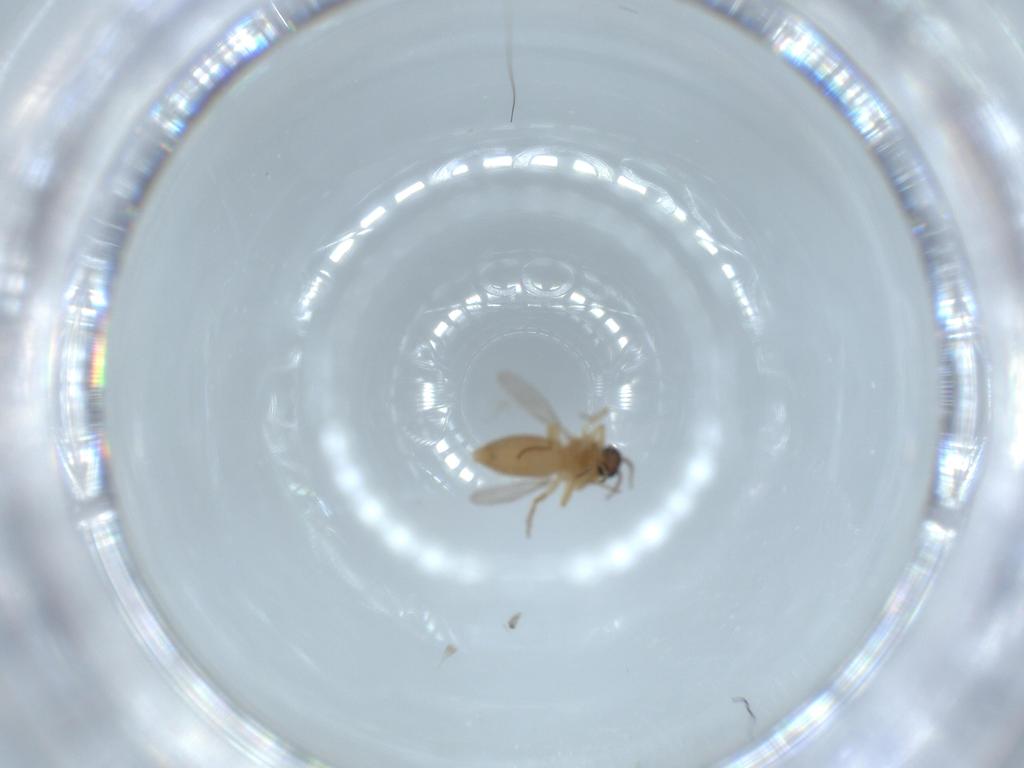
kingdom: Animalia
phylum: Arthropoda
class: Insecta
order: Diptera
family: Ceratopogonidae
